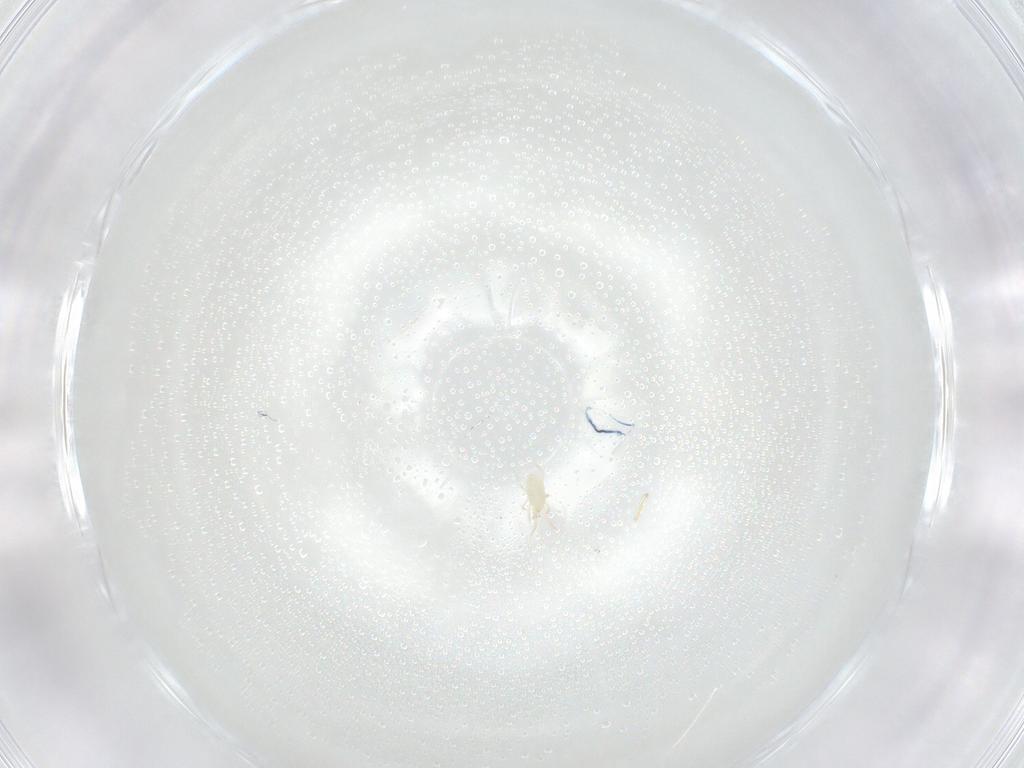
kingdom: Animalia
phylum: Arthropoda
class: Arachnida
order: Mesostigmata
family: Phytoseiidae
